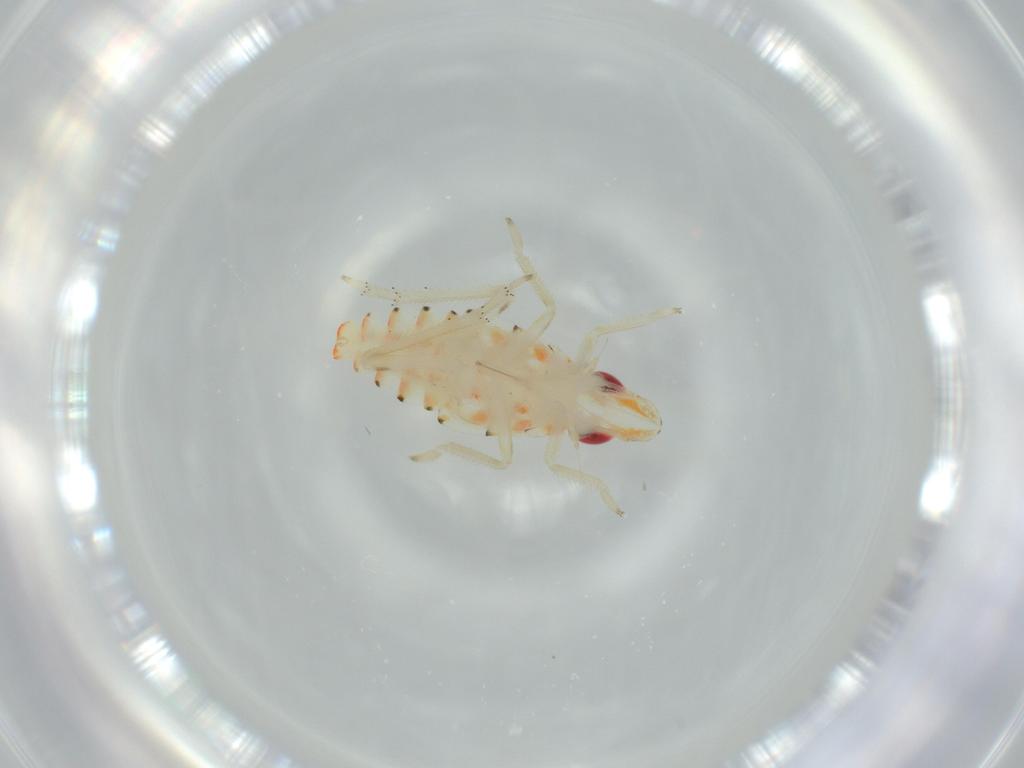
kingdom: Animalia
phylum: Arthropoda
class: Insecta
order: Hemiptera
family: Tropiduchidae
